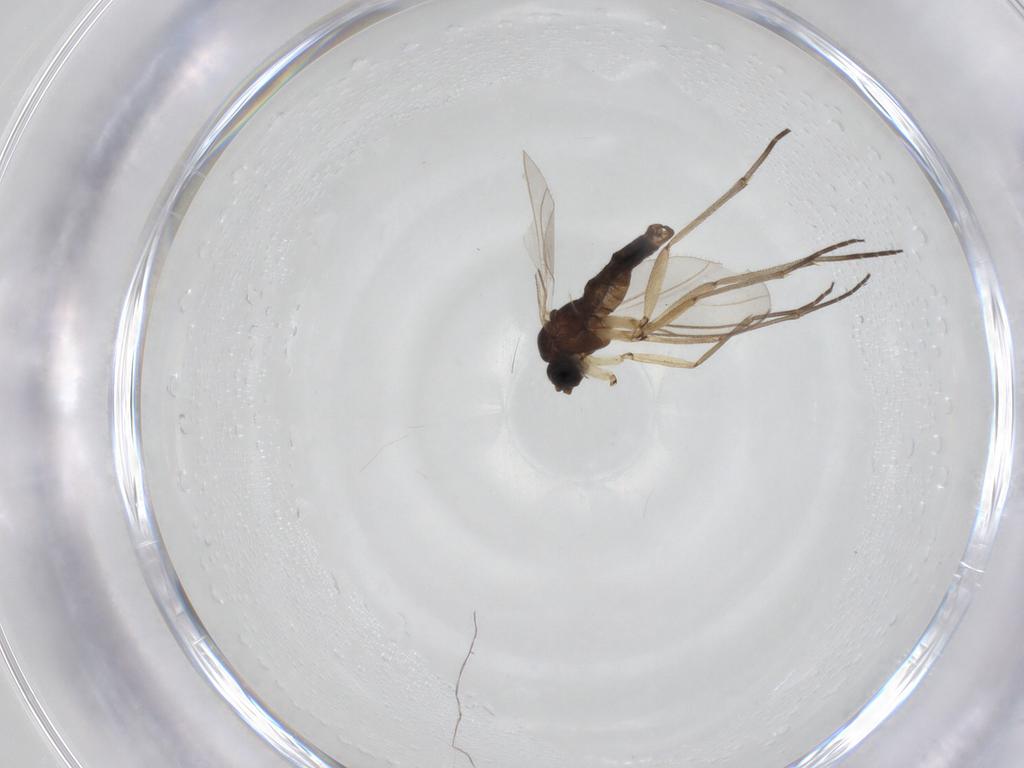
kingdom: Animalia
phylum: Arthropoda
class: Insecta
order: Diptera
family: Sciaridae
